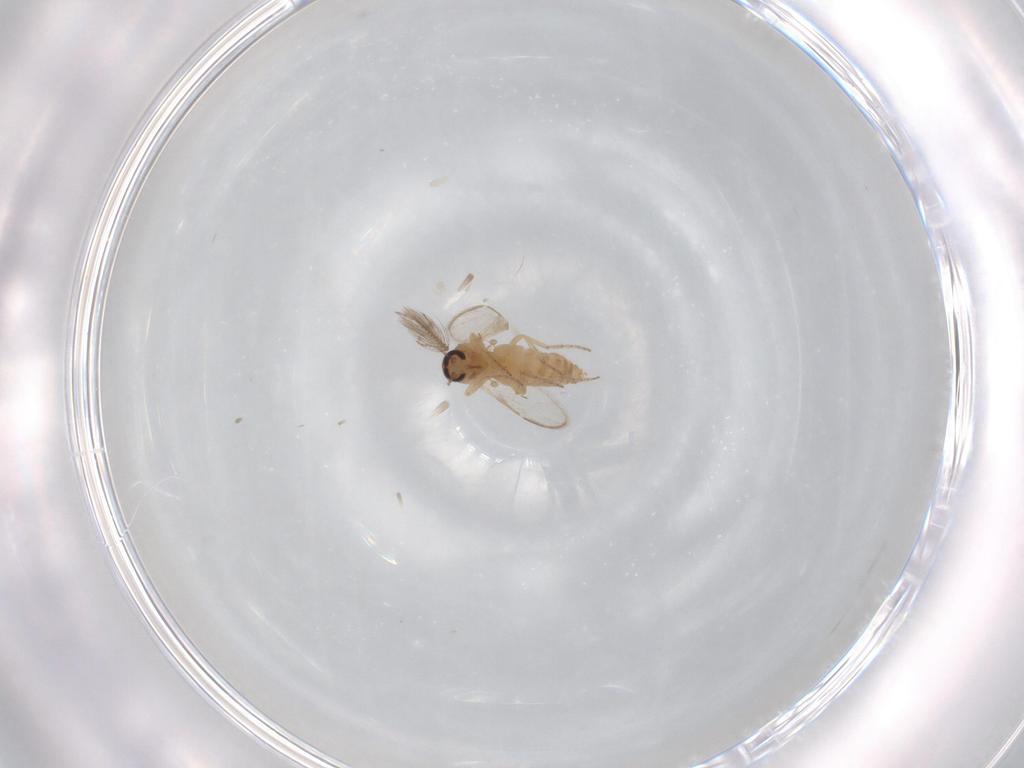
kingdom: Animalia
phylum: Arthropoda
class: Insecta
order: Diptera
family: Ceratopogonidae
